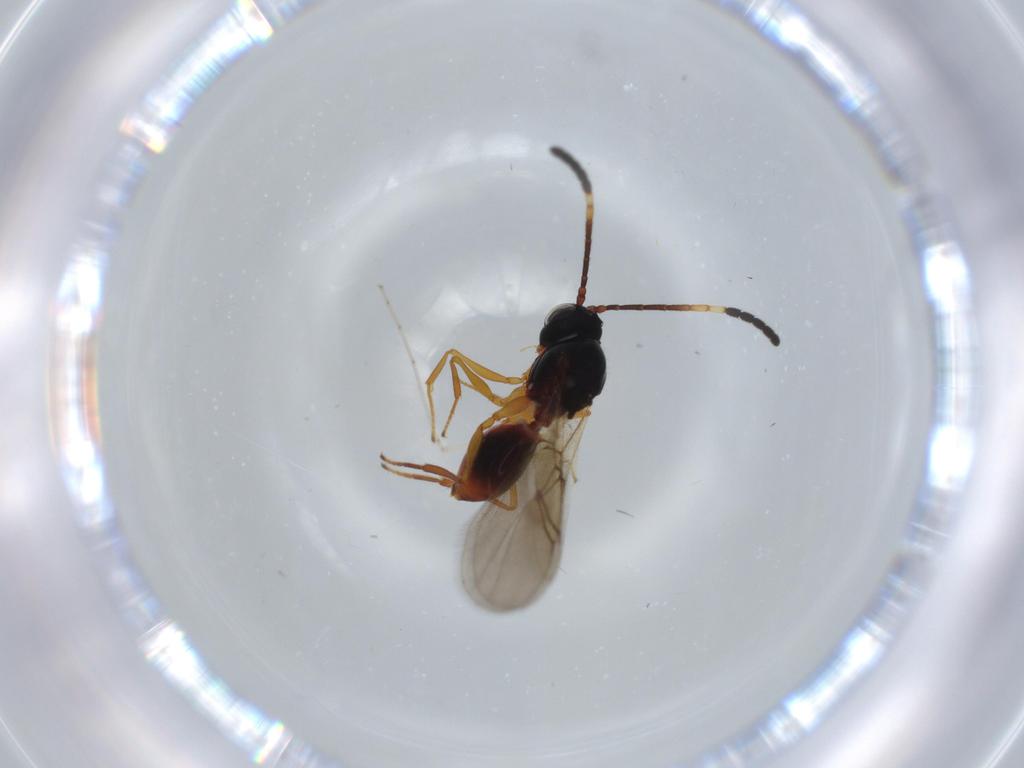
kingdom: Animalia
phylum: Arthropoda
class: Insecta
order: Hymenoptera
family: Figitidae
